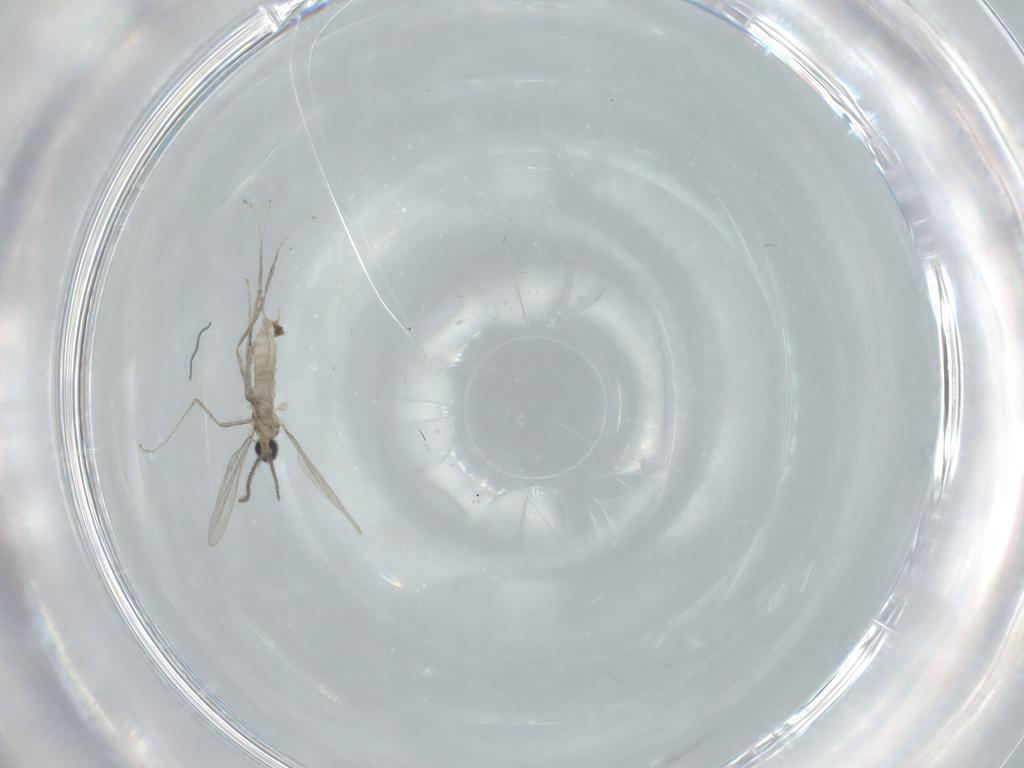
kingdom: Animalia
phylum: Arthropoda
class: Insecta
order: Diptera
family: Cecidomyiidae
